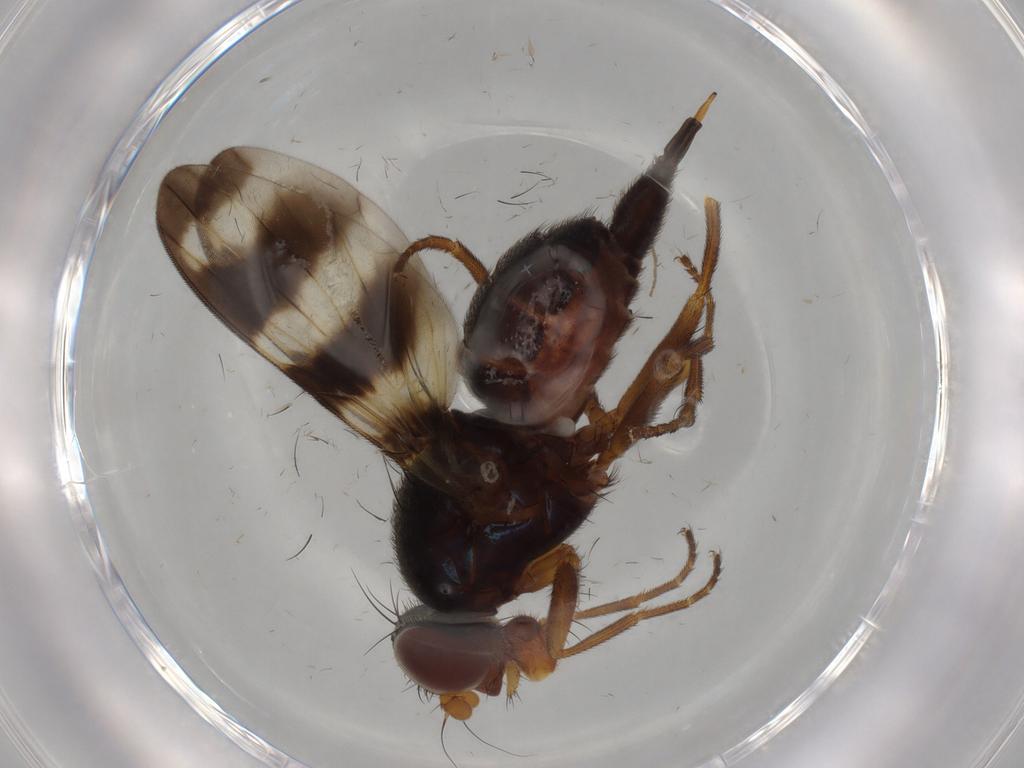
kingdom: Animalia
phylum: Arthropoda
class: Insecta
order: Diptera
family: Ulidiidae
